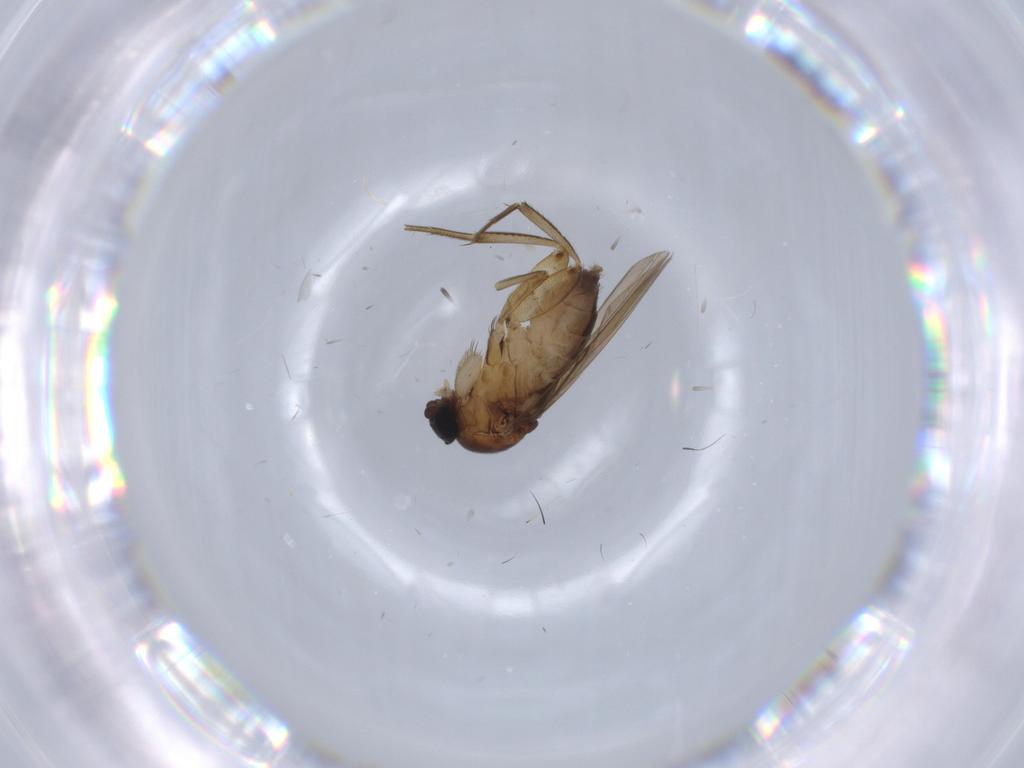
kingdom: Animalia
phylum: Arthropoda
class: Insecta
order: Diptera
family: Phoridae
